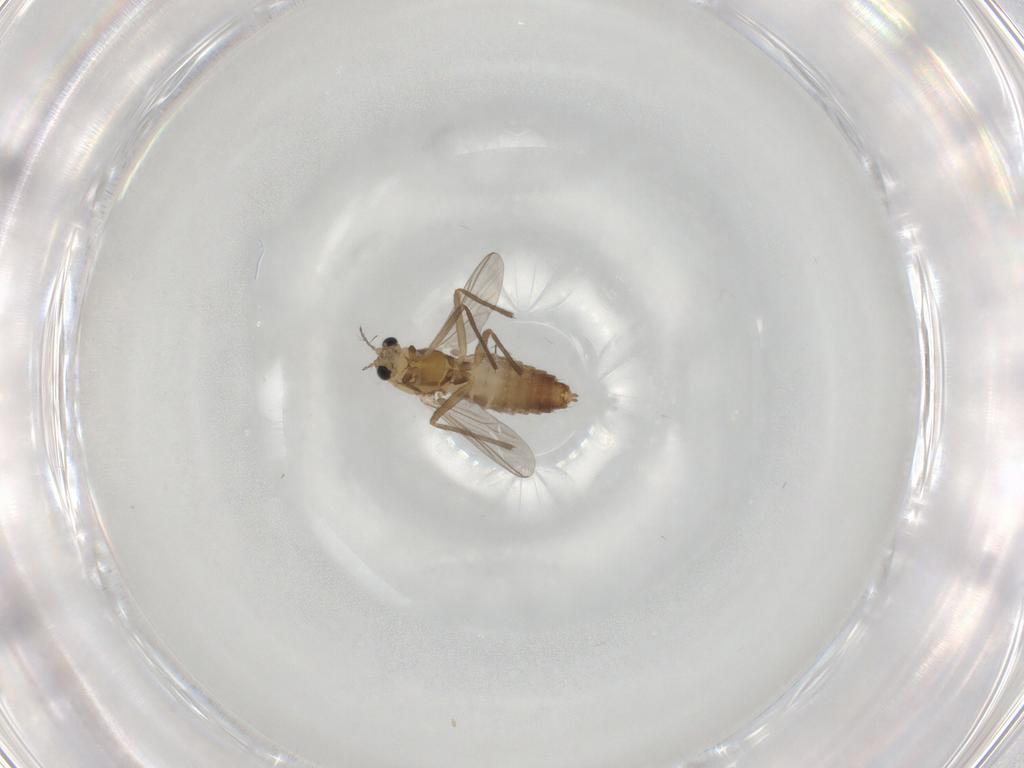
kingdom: Animalia
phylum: Arthropoda
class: Insecta
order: Diptera
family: Chironomidae
